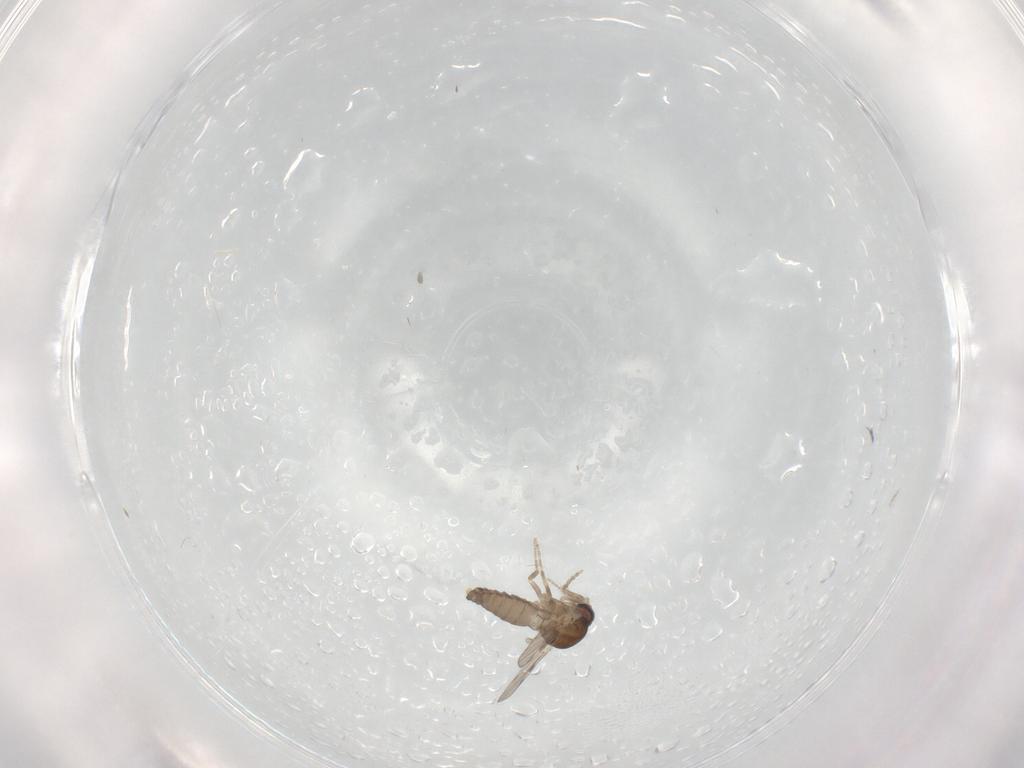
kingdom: Animalia
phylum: Arthropoda
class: Insecta
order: Diptera
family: Ceratopogonidae
